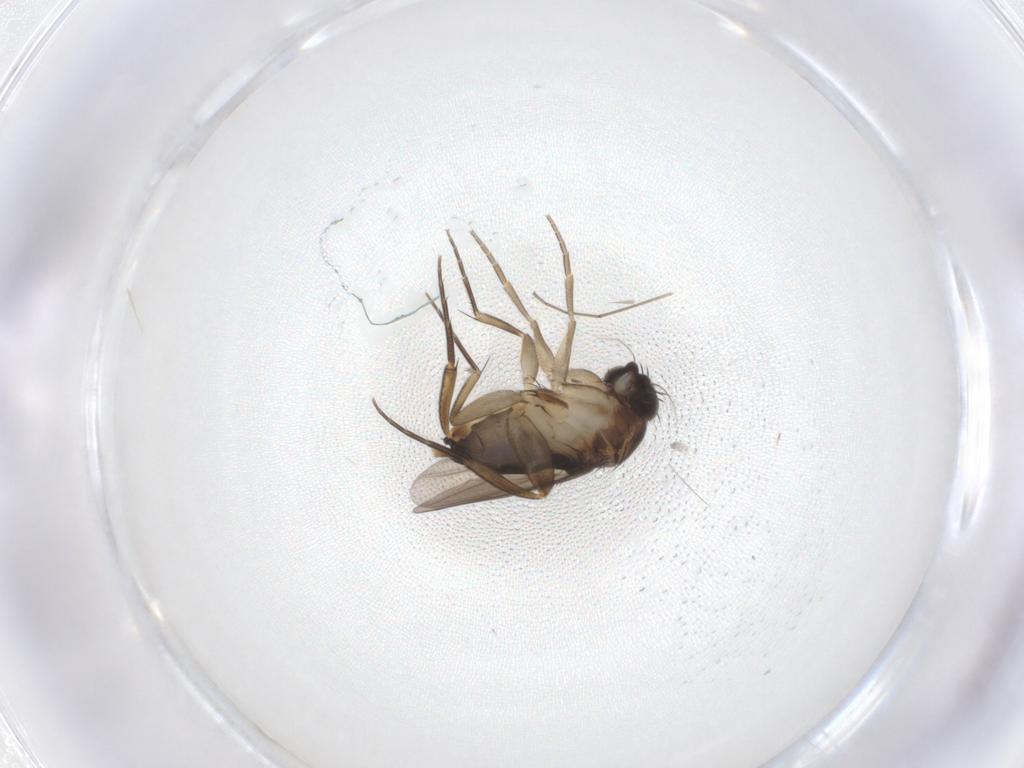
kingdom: Animalia
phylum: Arthropoda
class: Insecta
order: Diptera
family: Phoridae
